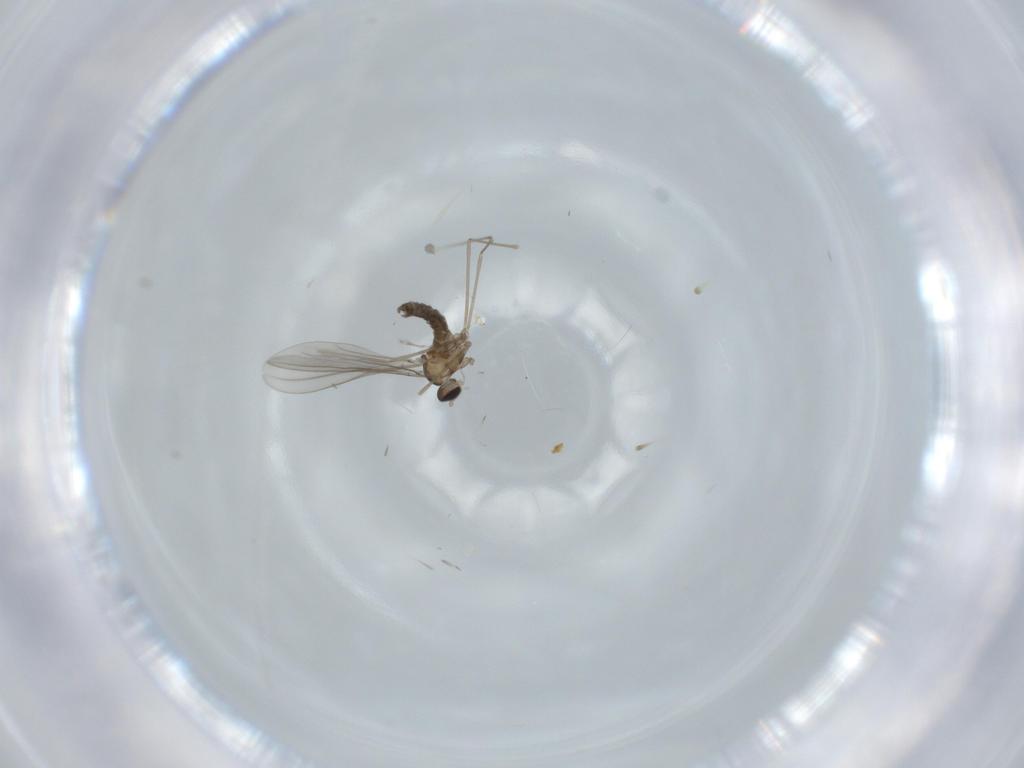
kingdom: Animalia
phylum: Arthropoda
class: Insecta
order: Diptera
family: Cecidomyiidae
